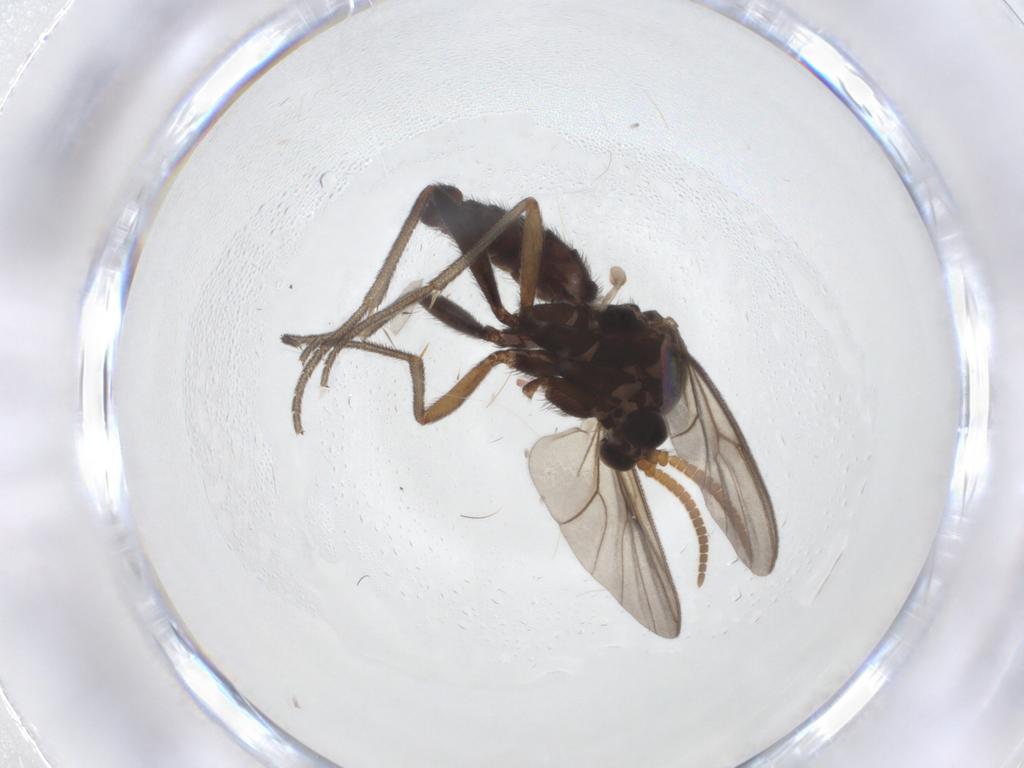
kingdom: Animalia
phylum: Arthropoda
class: Insecta
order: Diptera
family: Mycetophilidae
